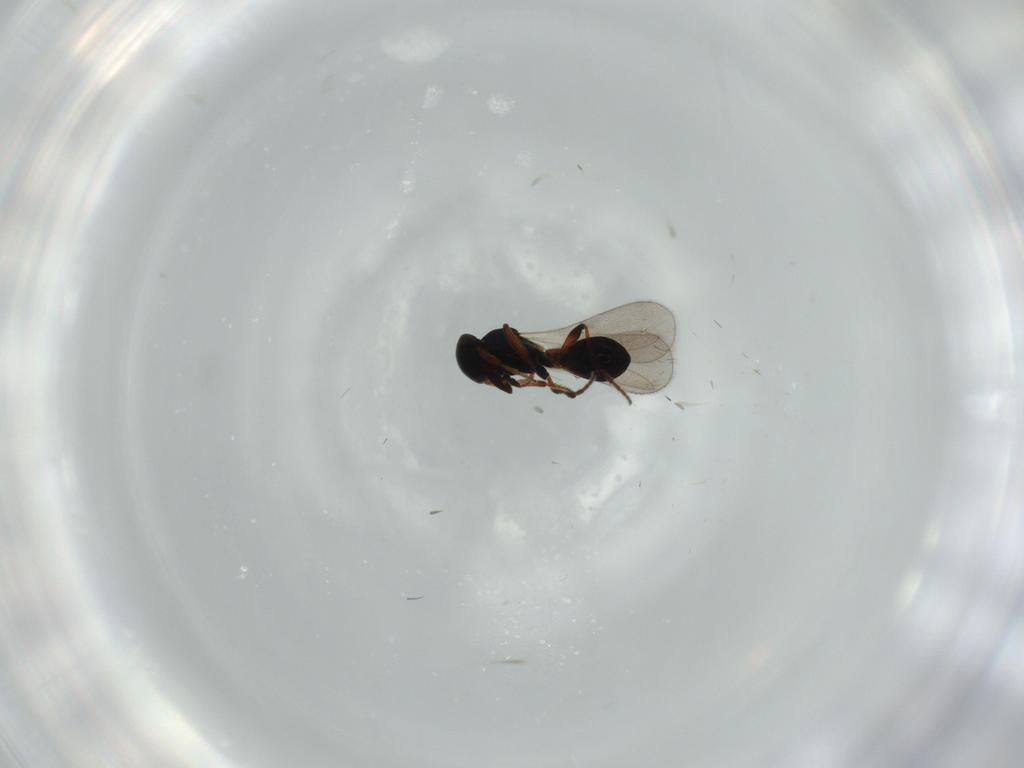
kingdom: Animalia
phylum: Arthropoda
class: Insecta
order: Hymenoptera
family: Platygastridae
